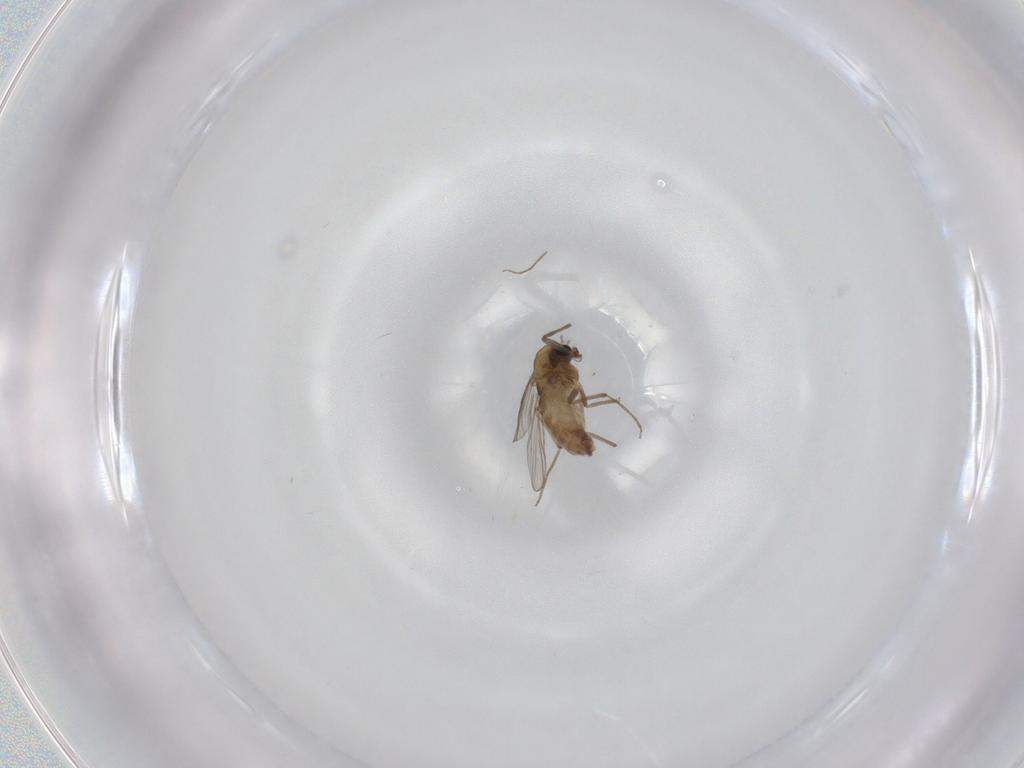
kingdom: Animalia
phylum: Arthropoda
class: Insecta
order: Diptera
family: Chironomidae
